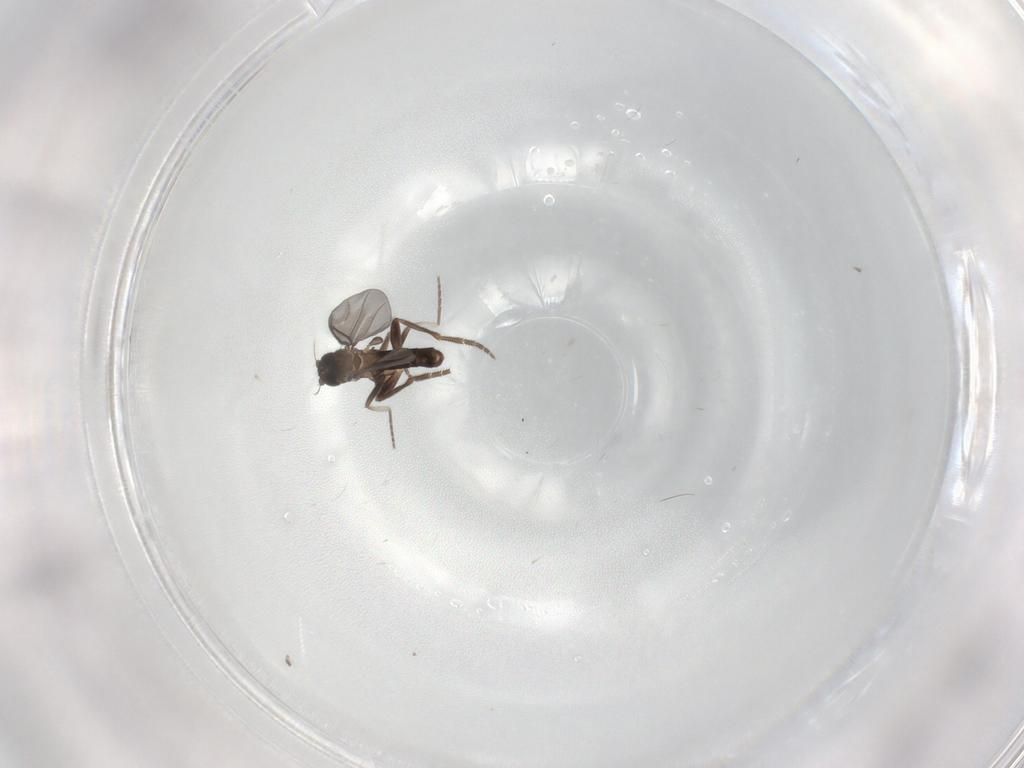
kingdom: Animalia
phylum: Arthropoda
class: Insecta
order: Diptera
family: Phoridae
